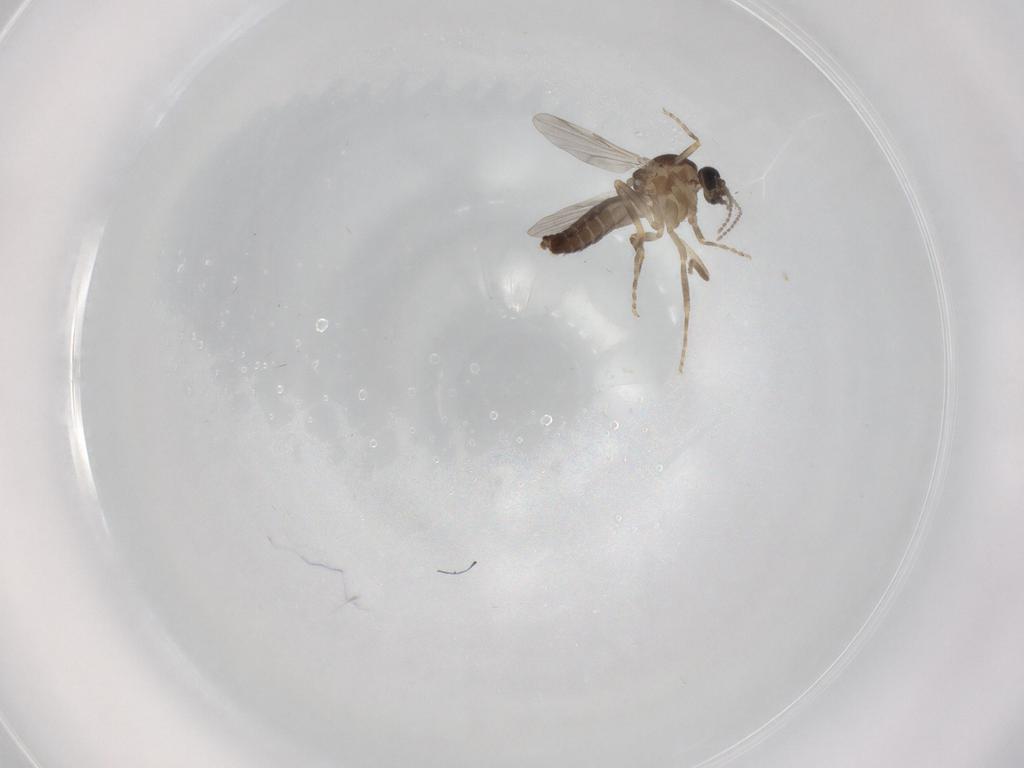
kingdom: Animalia
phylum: Arthropoda
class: Insecta
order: Diptera
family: Ceratopogonidae
